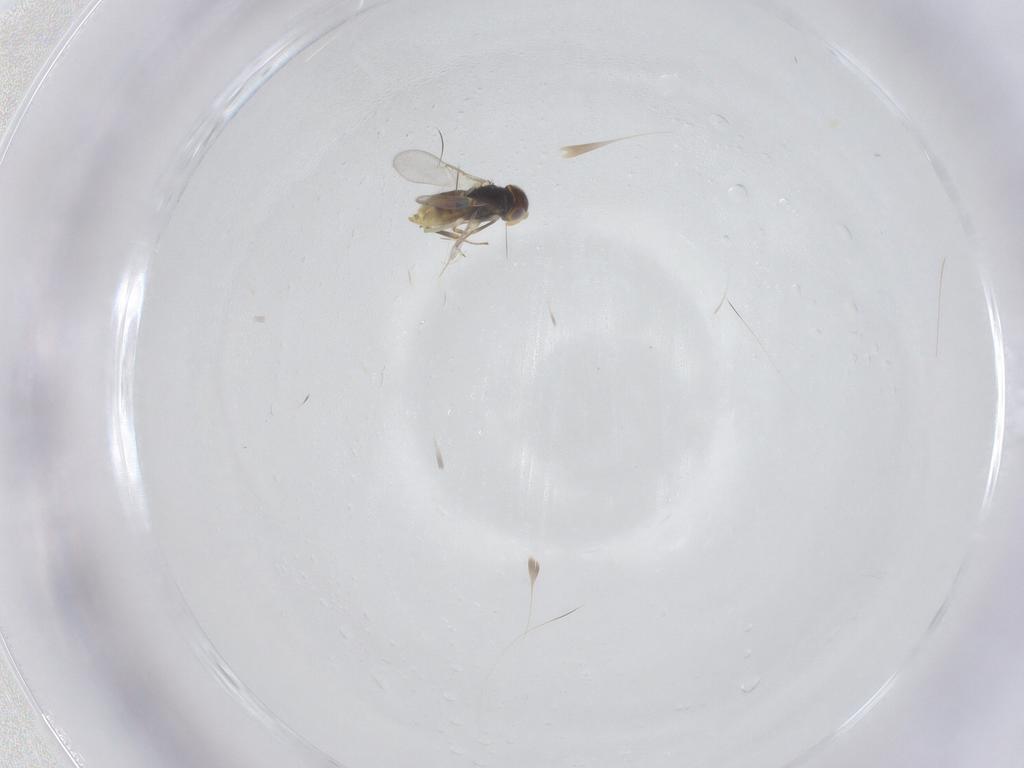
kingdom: Animalia
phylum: Arthropoda
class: Insecta
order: Hymenoptera
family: Aphelinidae
